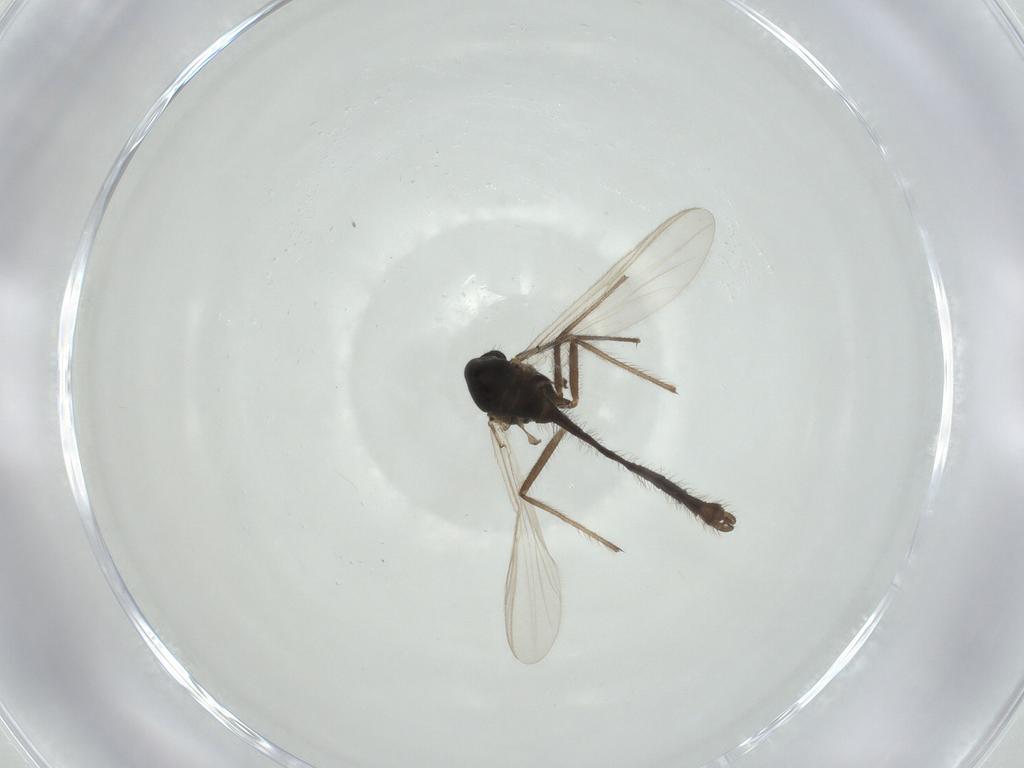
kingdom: Animalia
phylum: Arthropoda
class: Insecta
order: Diptera
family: Chironomidae
